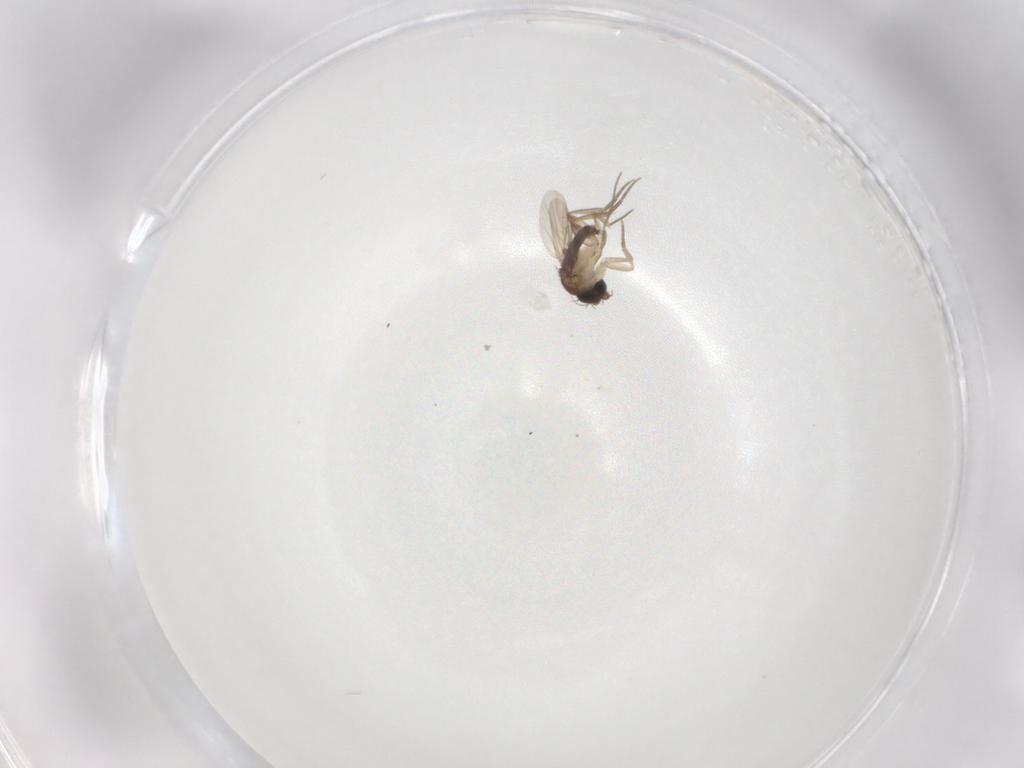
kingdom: Animalia
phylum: Arthropoda
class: Insecta
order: Diptera
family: Phoridae
